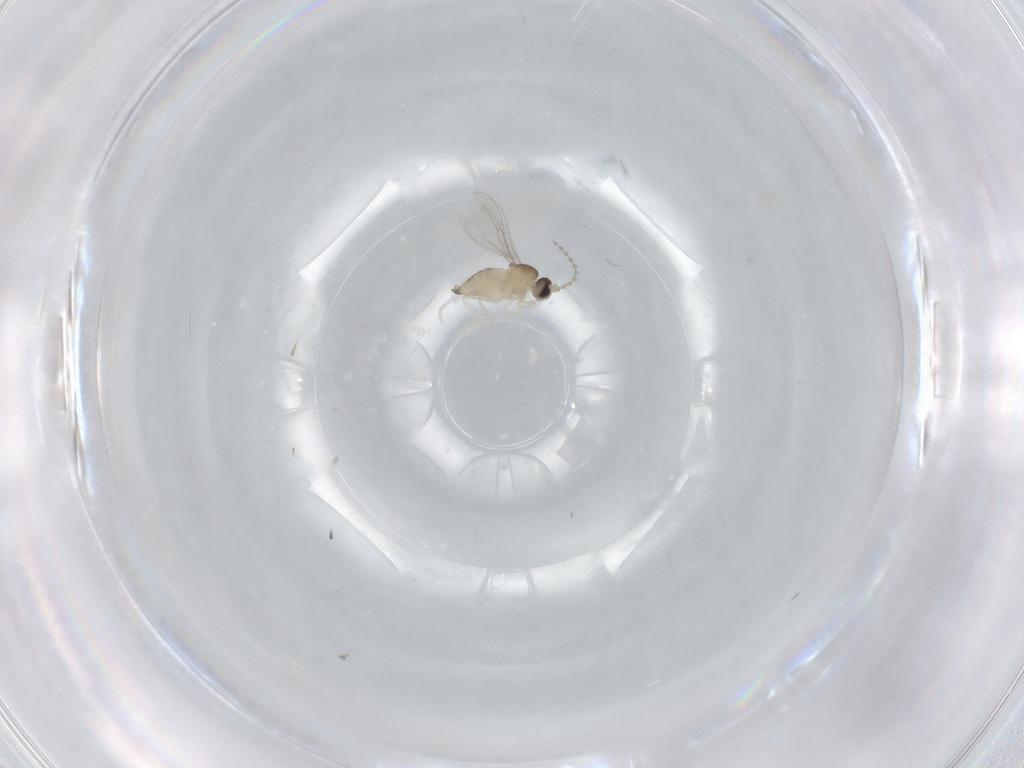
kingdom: Animalia
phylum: Arthropoda
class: Insecta
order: Diptera
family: Cecidomyiidae
